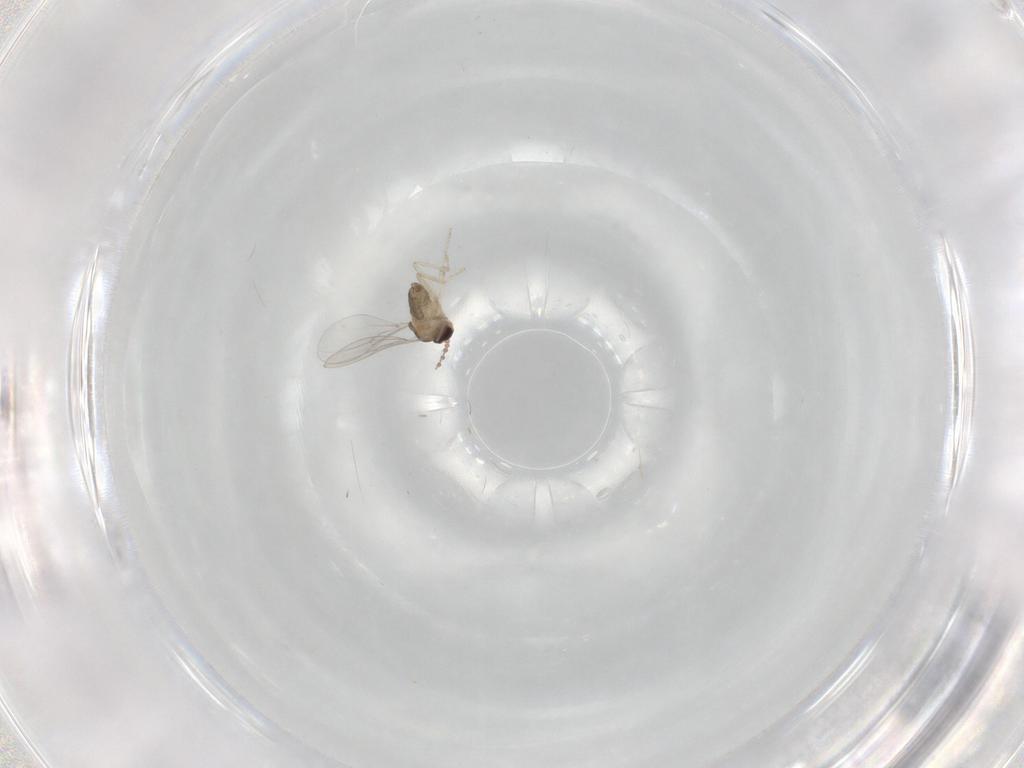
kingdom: Animalia
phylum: Arthropoda
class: Insecta
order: Diptera
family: Cecidomyiidae
